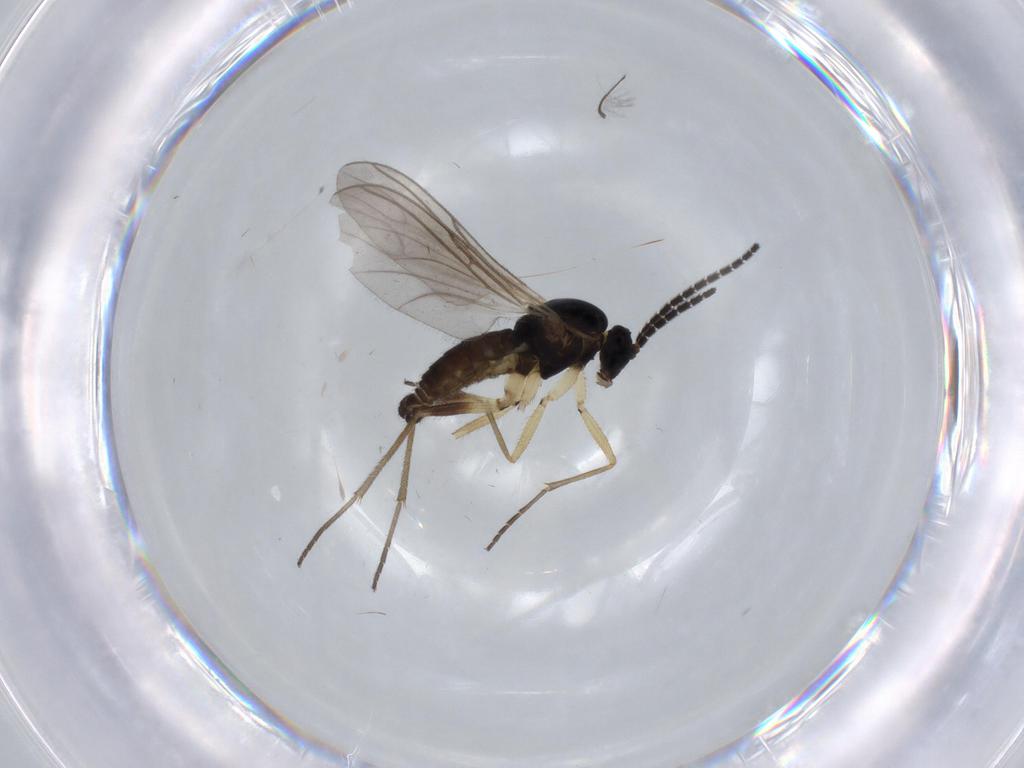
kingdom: Animalia
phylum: Arthropoda
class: Insecta
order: Diptera
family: Sciaridae
